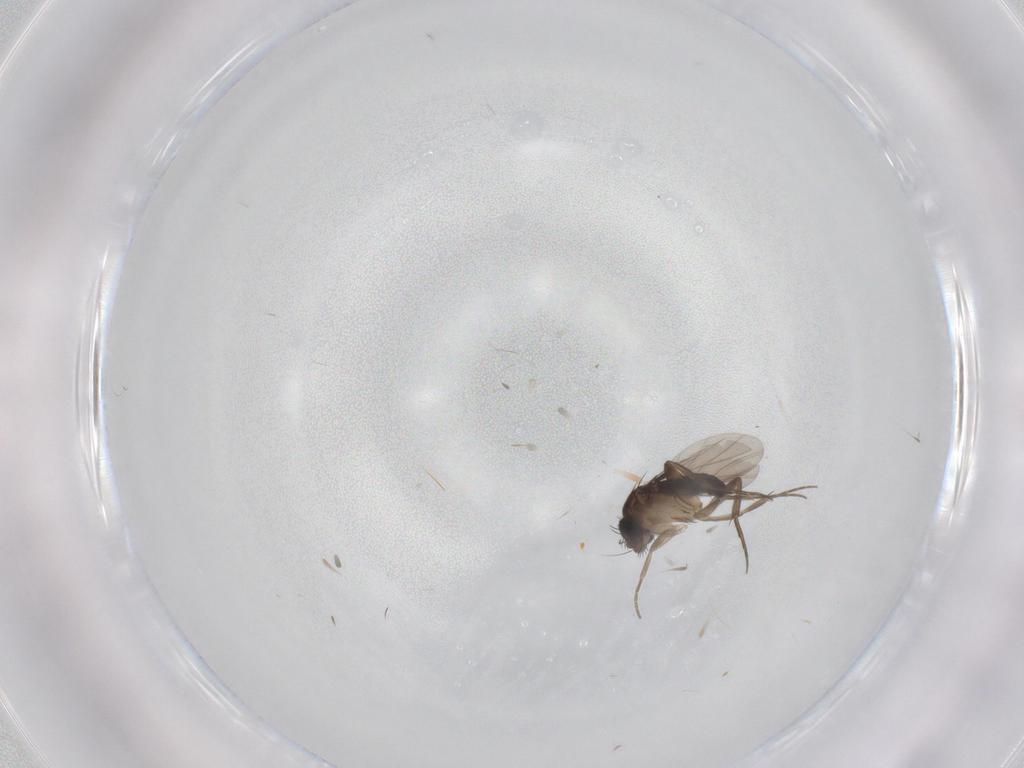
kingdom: Animalia
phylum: Arthropoda
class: Insecta
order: Diptera
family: Phoridae
